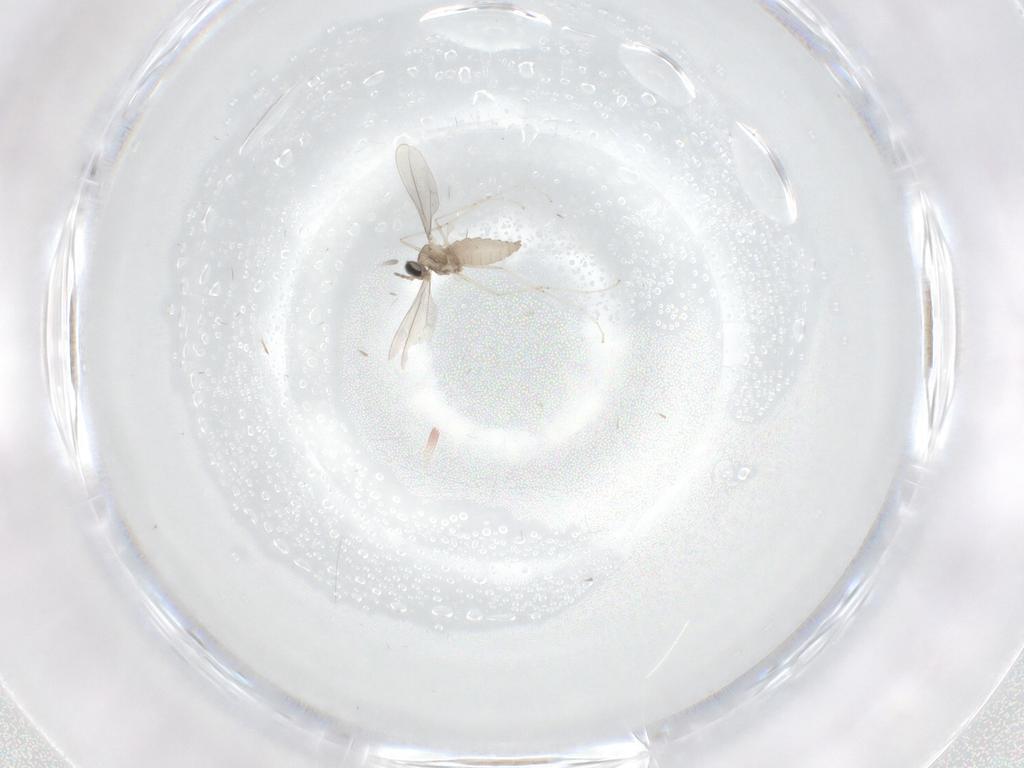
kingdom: Animalia
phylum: Arthropoda
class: Insecta
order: Diptera
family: Cecidomyiidae
